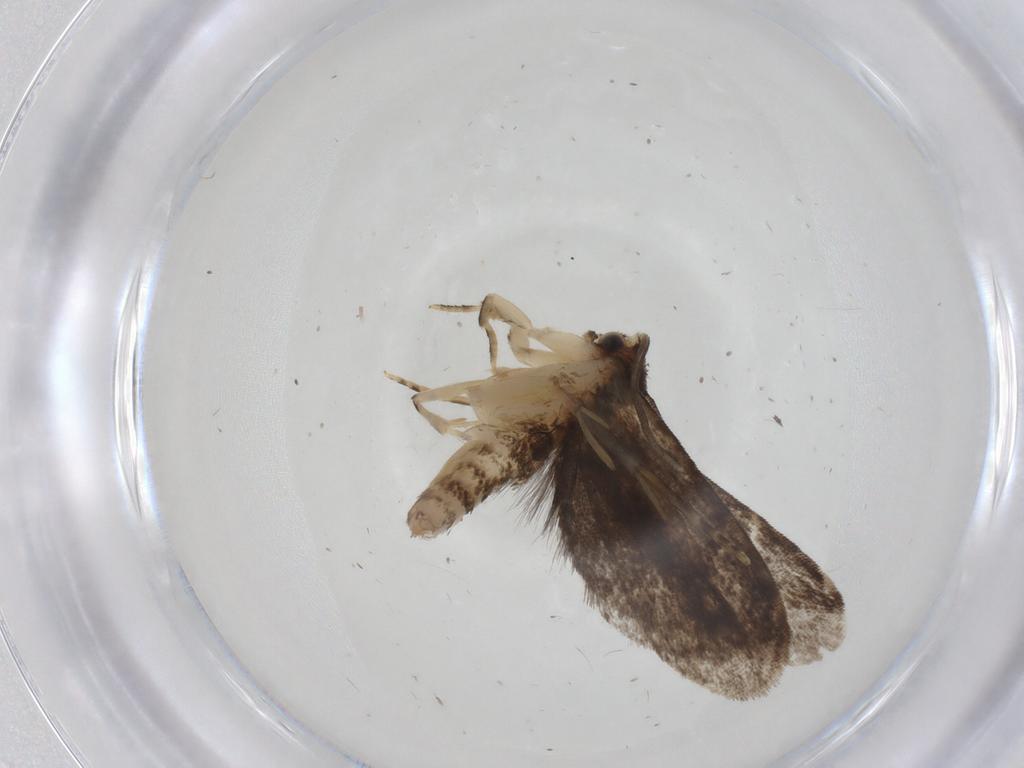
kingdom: Animalia
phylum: Arthropoda
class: Insecta
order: Lepidoptera
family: Dryadaulidae
